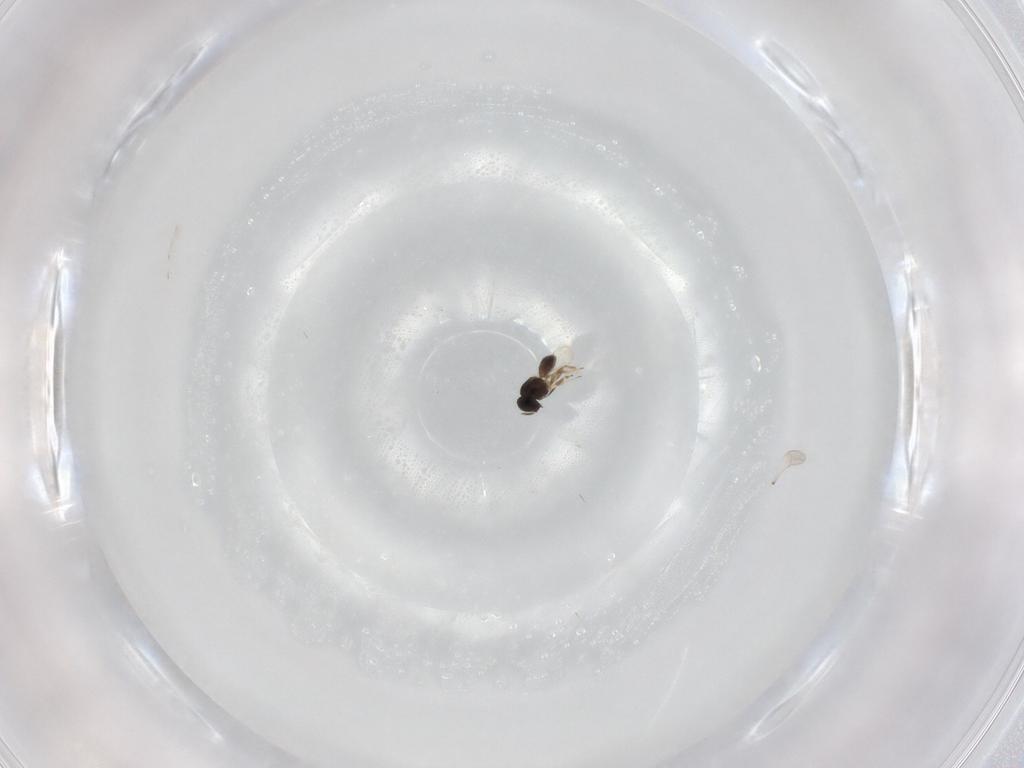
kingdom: Animalia
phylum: Arthropoda
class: Insecta
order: Hymenoptera
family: Scelionidae
